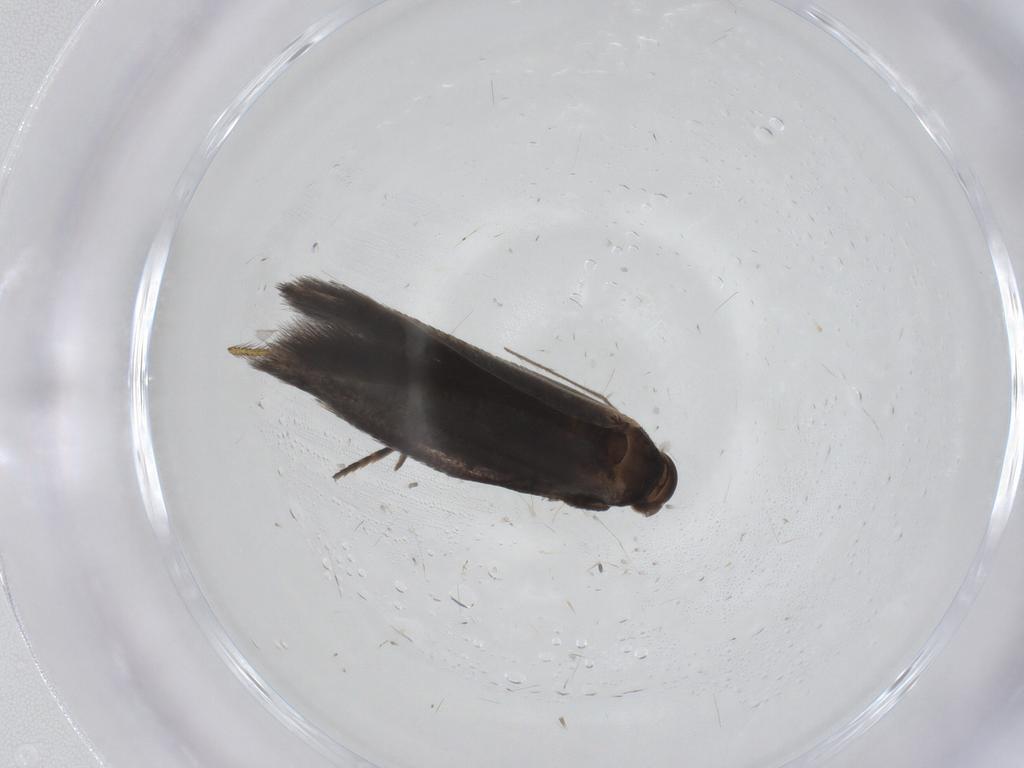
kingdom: Animalia
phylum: Arthropoda
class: Insecta
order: Lepidoptera
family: Elachistidae
